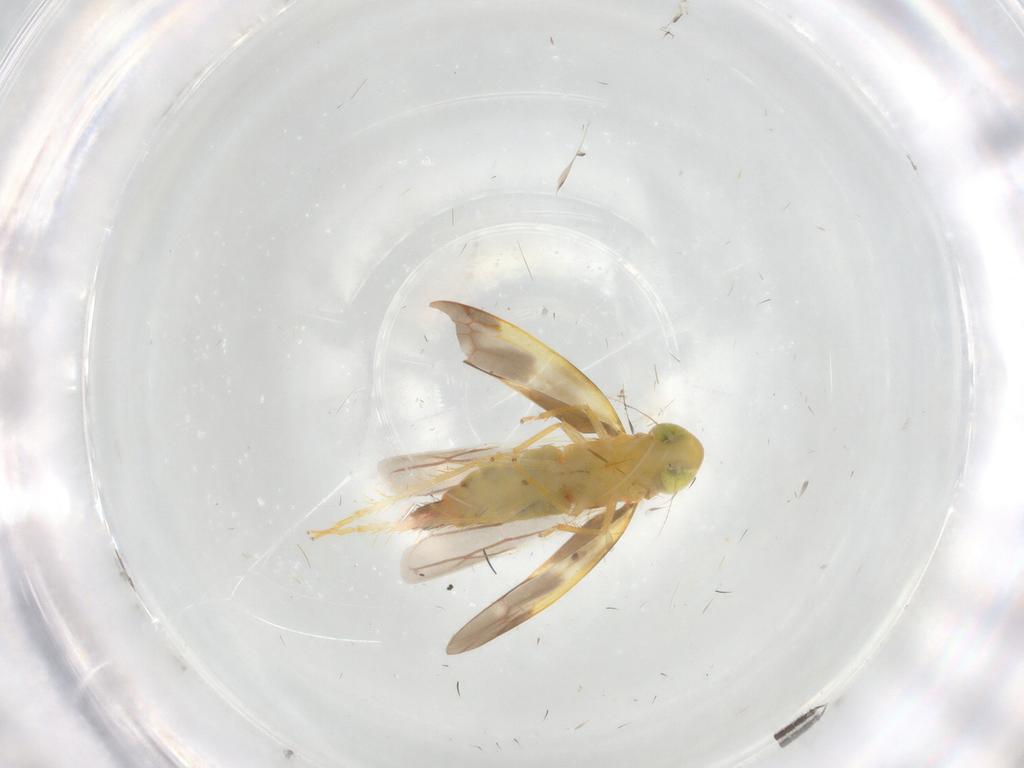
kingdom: Animalia
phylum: Arthropoda
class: Insecta
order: Hemiptera
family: Cicadellidae
